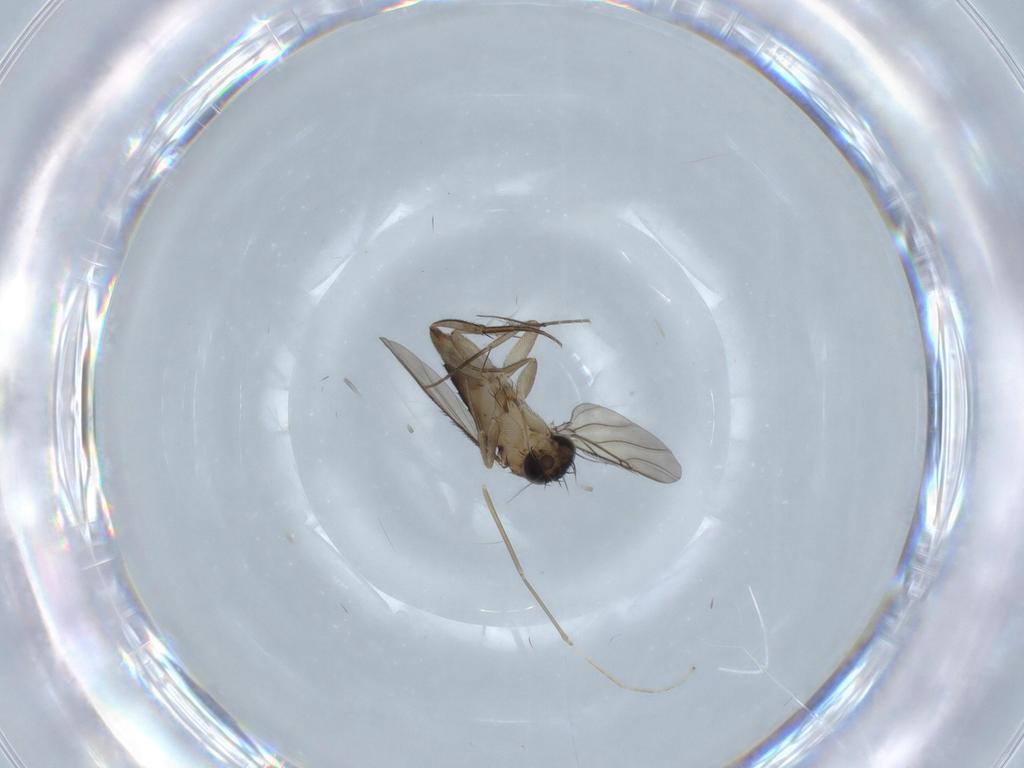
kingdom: Animalia
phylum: Arthropoda
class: Insecta
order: Diptera
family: Phoridae
